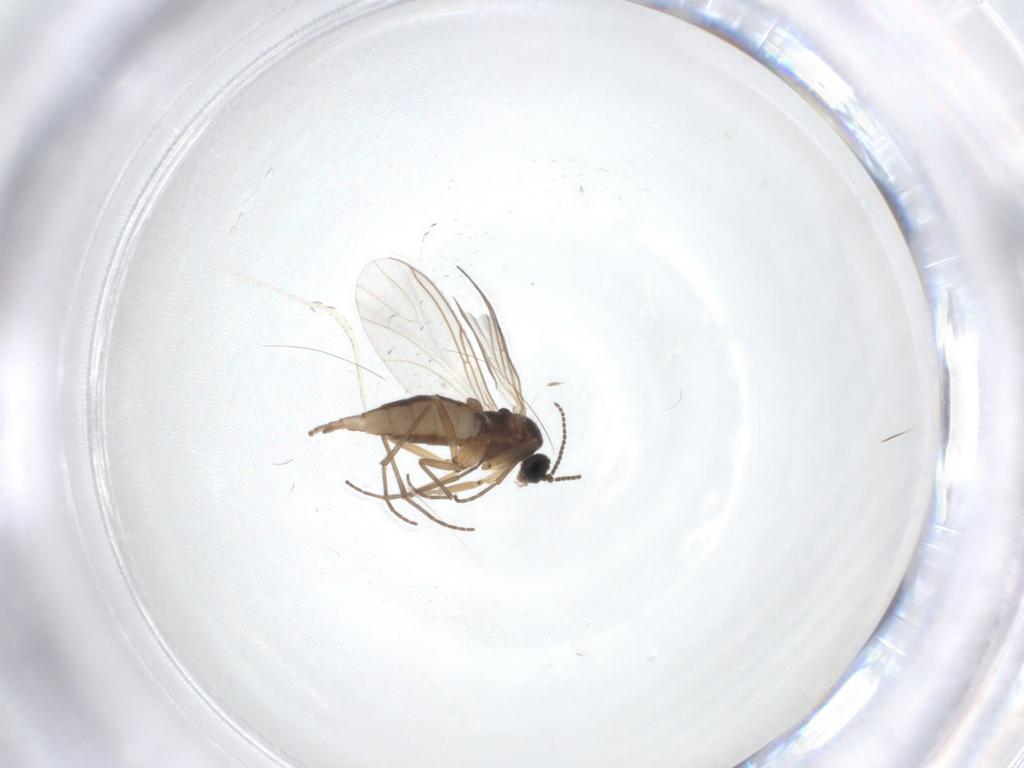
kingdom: Animalia
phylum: Arthropoda
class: Insecta
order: Diptera
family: Sciaridae
